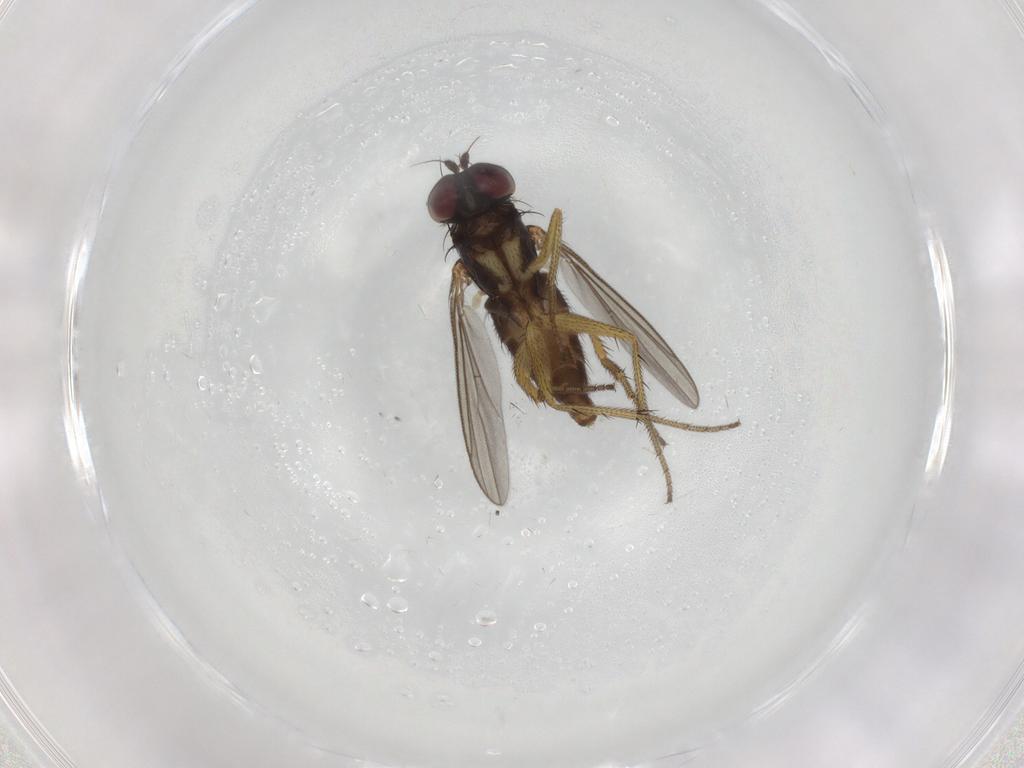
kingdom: Animalia
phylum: Arthropoda
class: Insecta
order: Diptera
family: Dolichopodidae
